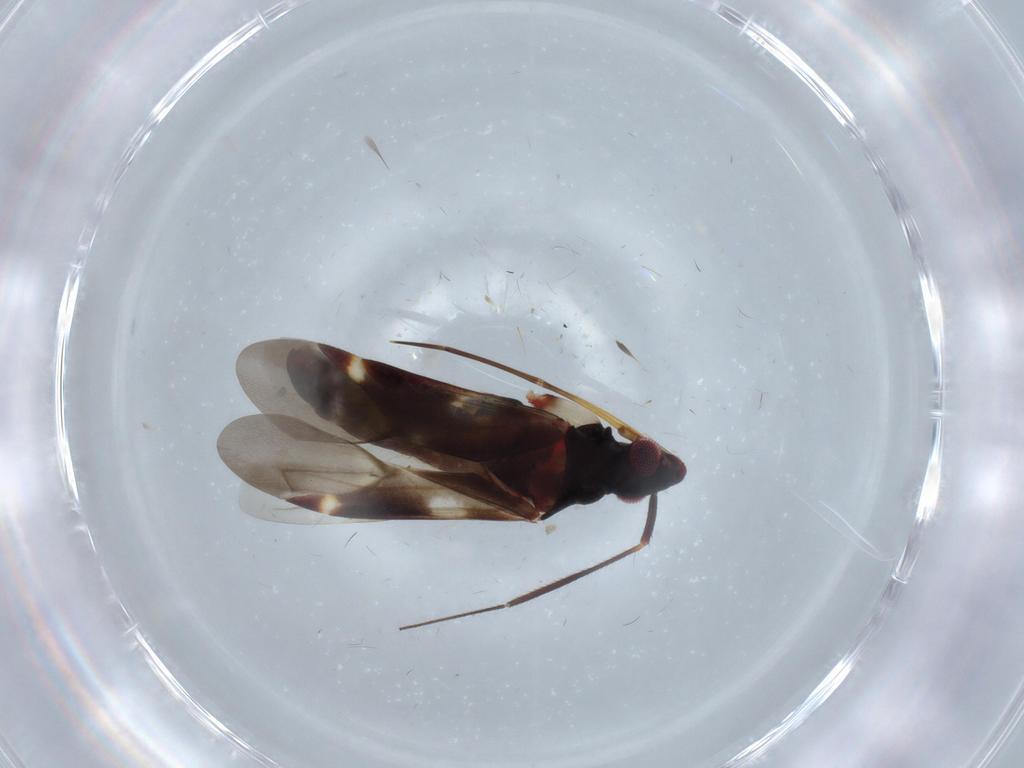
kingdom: Animalia
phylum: Arthropoda
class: Insecta
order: Hemiptera
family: Miridae
